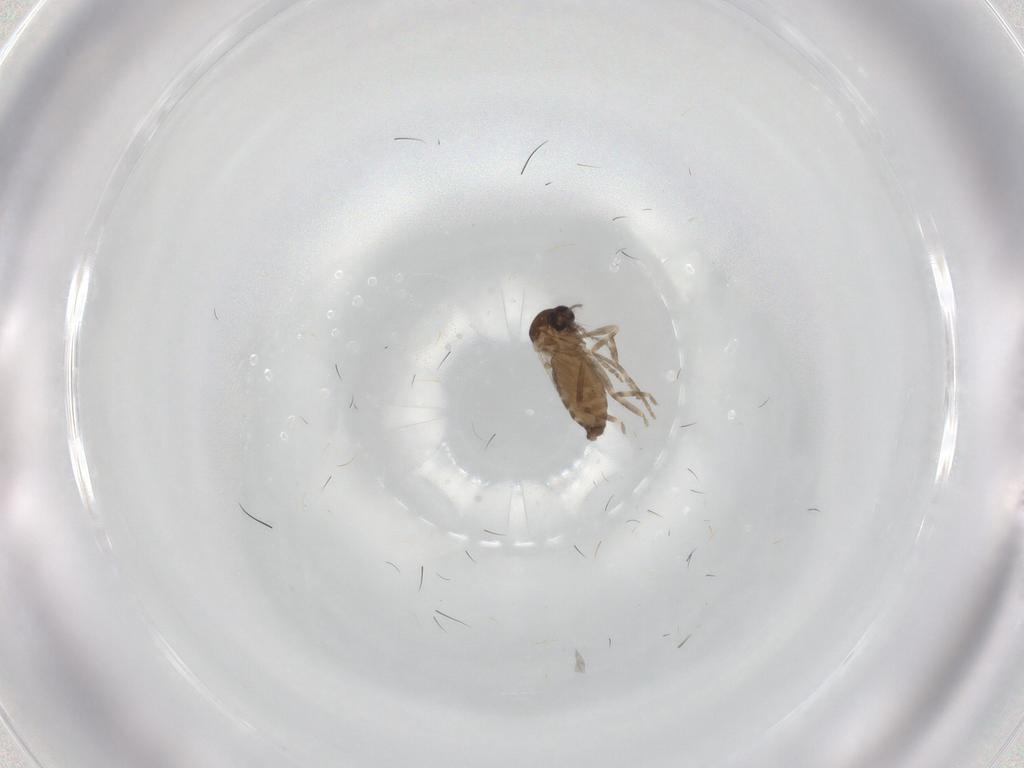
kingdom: Animalia
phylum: Arthropoda
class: Insecta
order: Diptera
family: Ceratopogonidae
